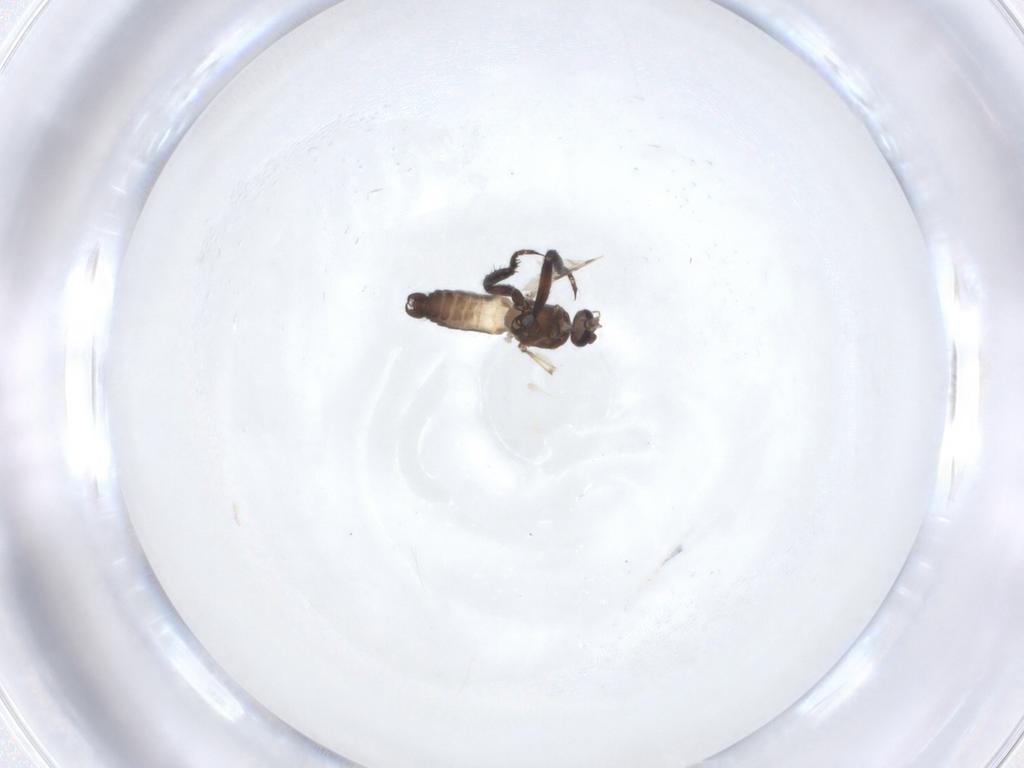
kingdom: Animalia
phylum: Arthropoda
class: Insecta
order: Diptera
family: Ceratopogonidae
